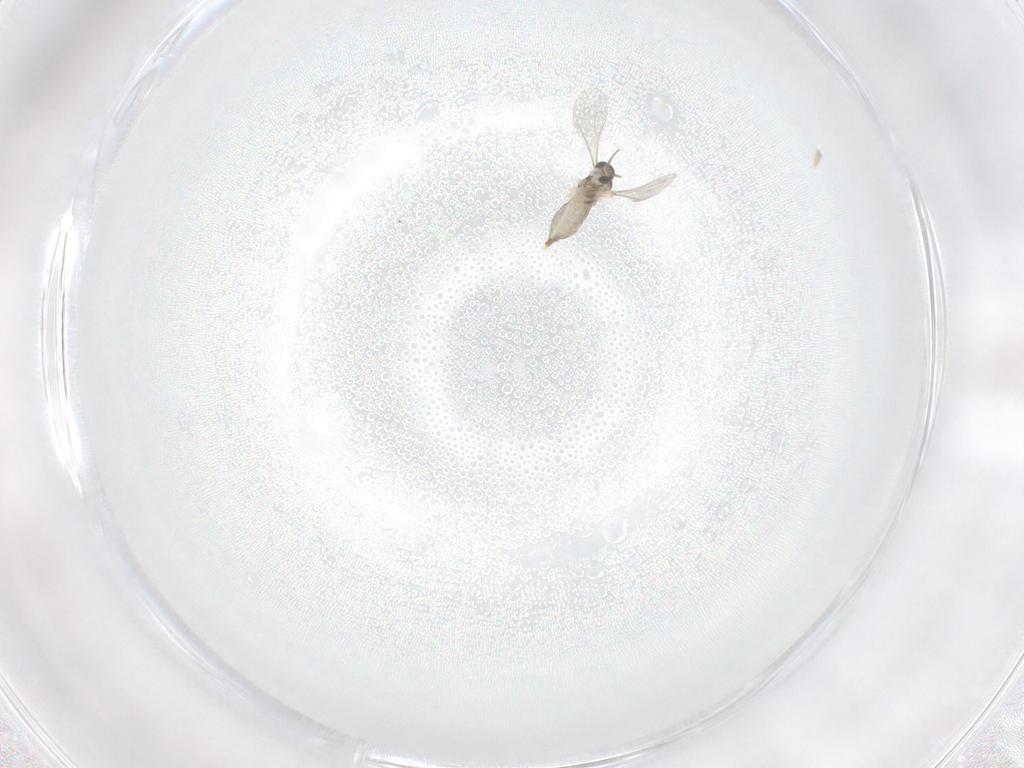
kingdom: Animalia
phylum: Arthropoda
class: Insecta
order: Diptera
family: Cecidomyiidae
